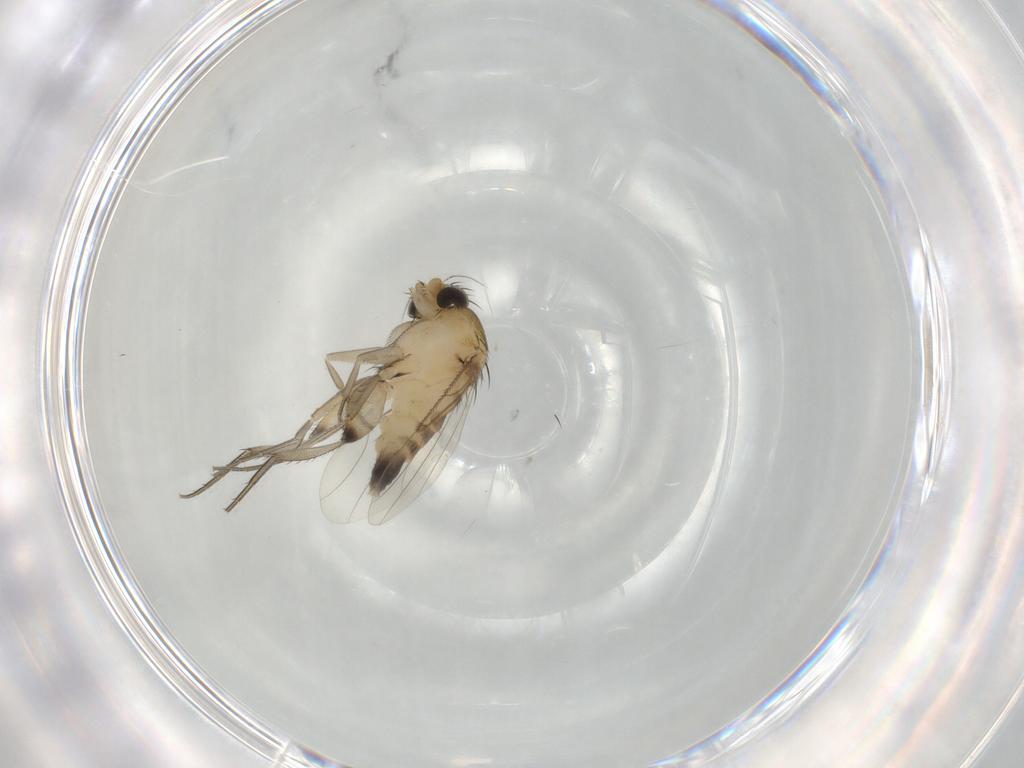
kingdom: Animalia
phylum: Arthropoda
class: Insecta
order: Diptera
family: Phoridae
